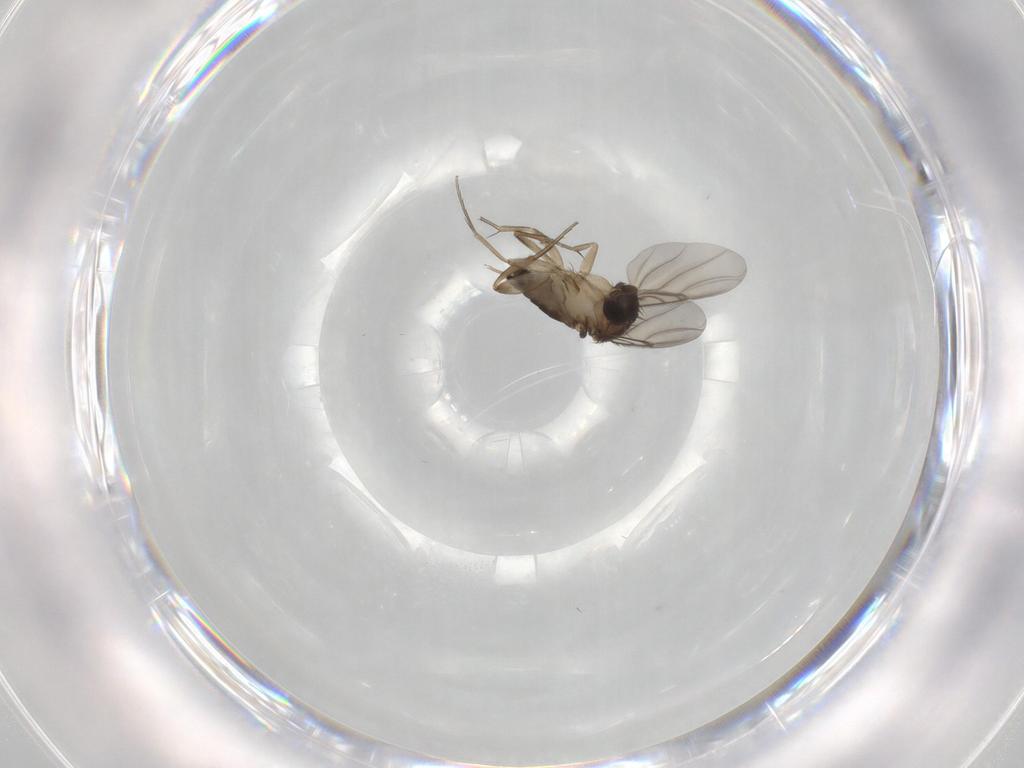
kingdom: Animalia
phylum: Arthropoda
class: Insecta
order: Diptera
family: Phoridae
